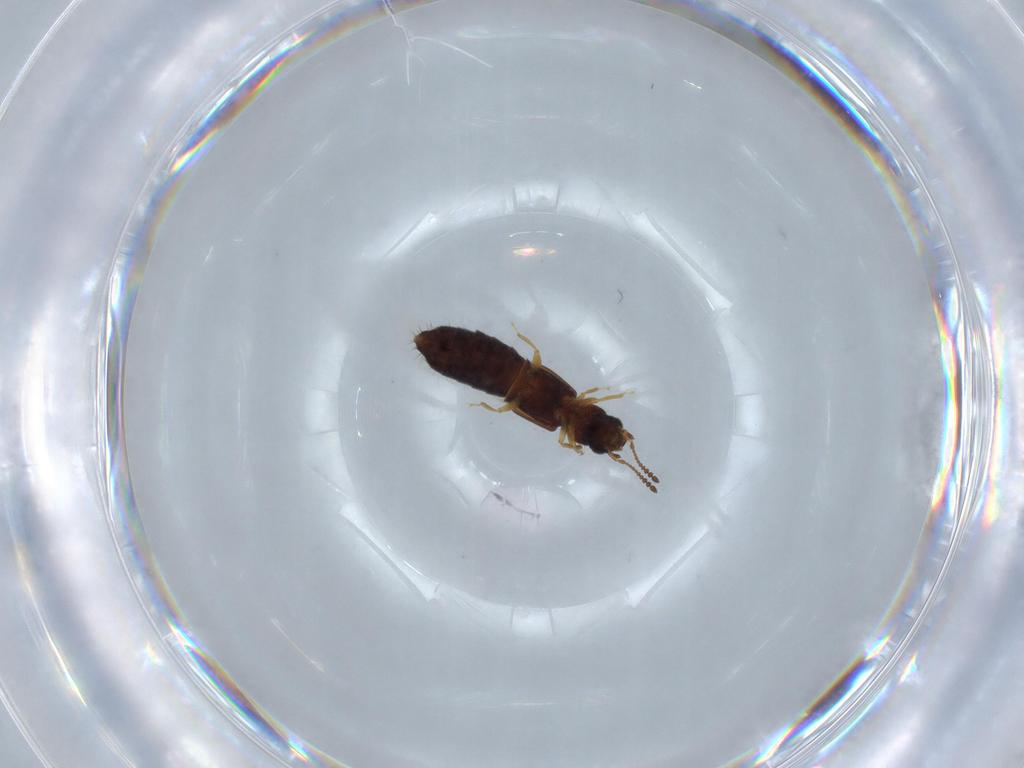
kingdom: Animalia
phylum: Arthropoda
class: Insecta
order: Coleoptera
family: Staphylinidae
